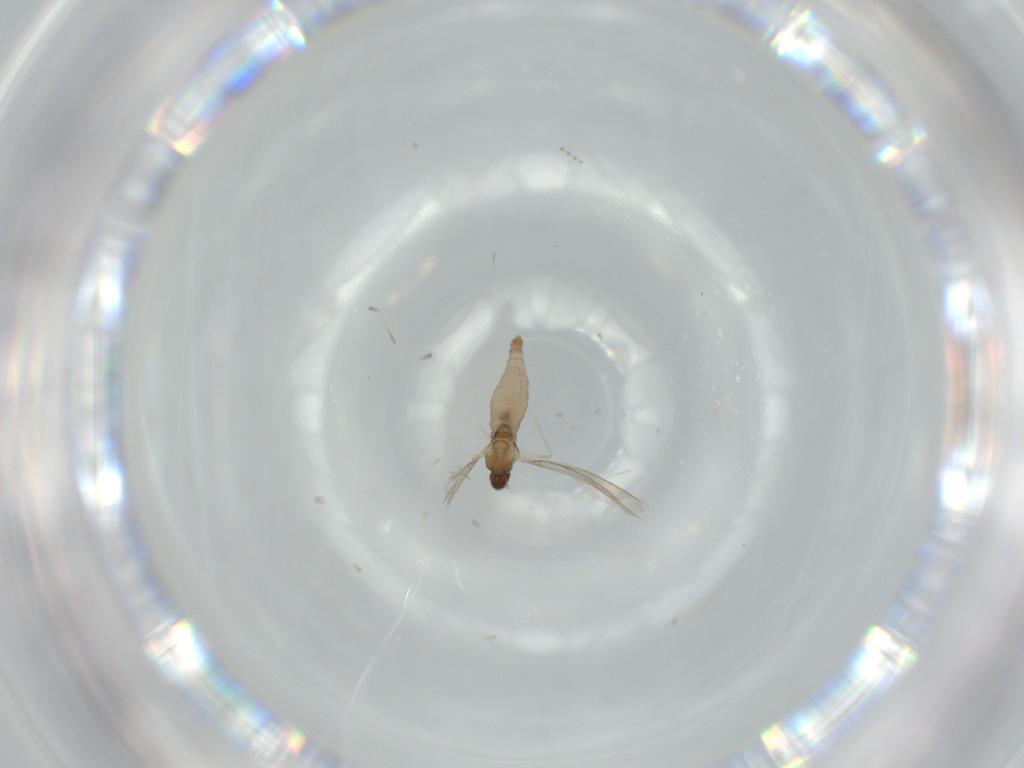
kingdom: Animalia
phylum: Arthropoda
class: Insecta
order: Diptera
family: Cecidomyiidae
